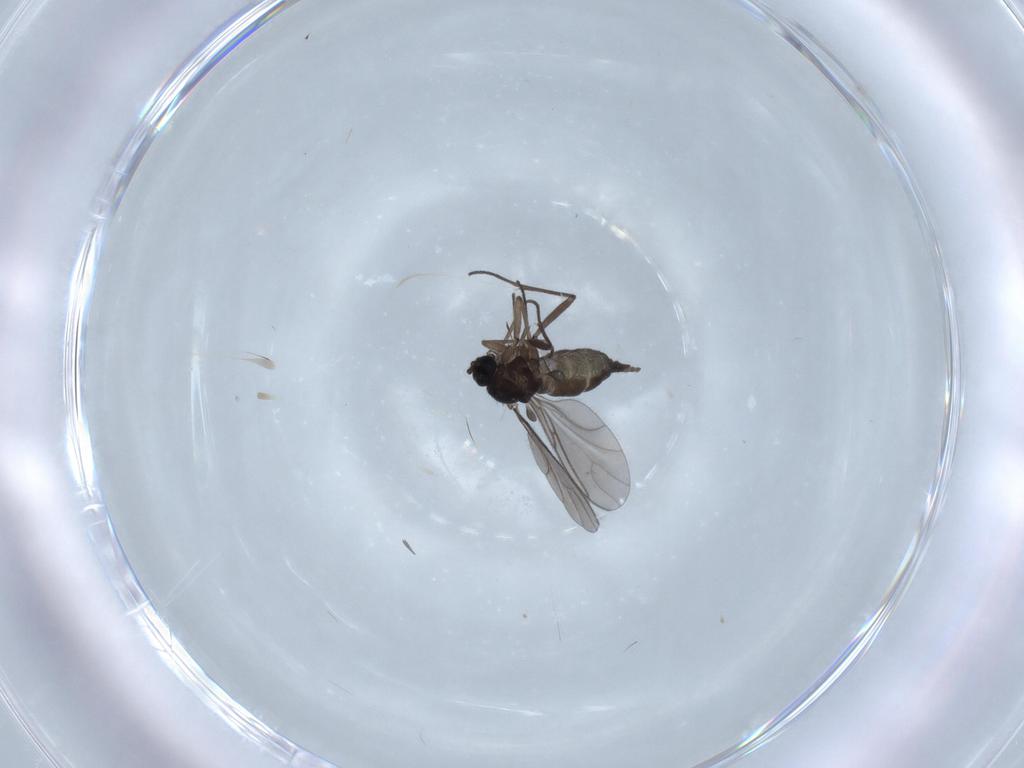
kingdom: Animalia
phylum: Arthropoda
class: Insecta
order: Diptera
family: Sciaridae
